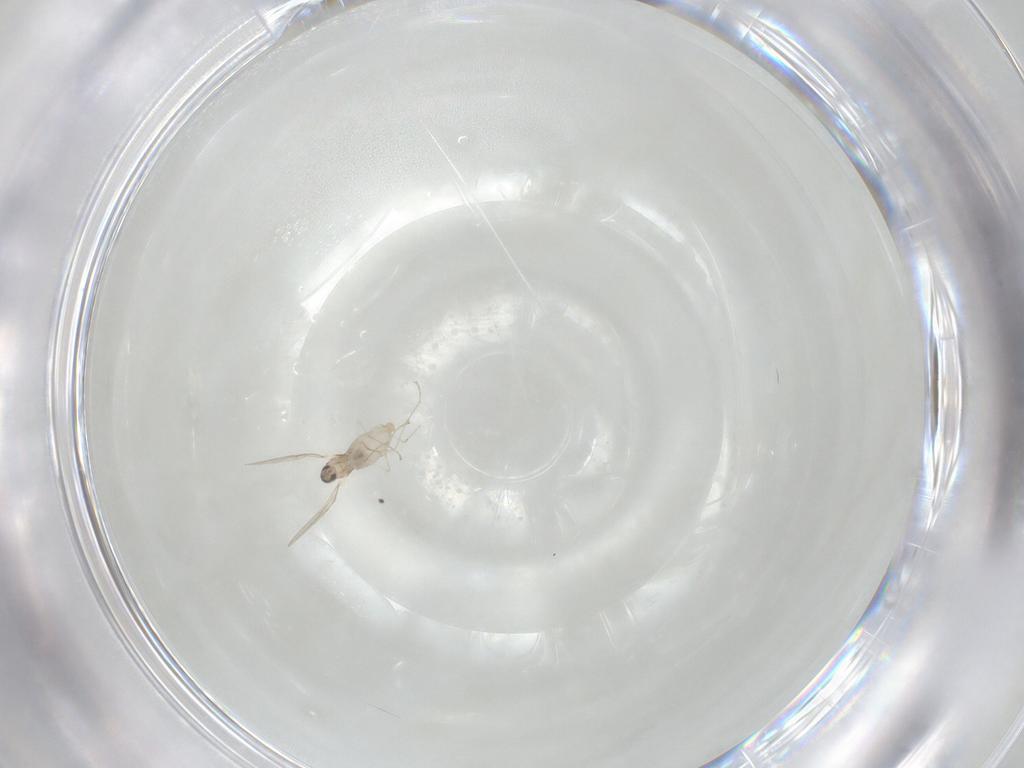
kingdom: Animalia
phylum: Arthropoda
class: Insecta
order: Diptera
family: Cecidomyiidae
